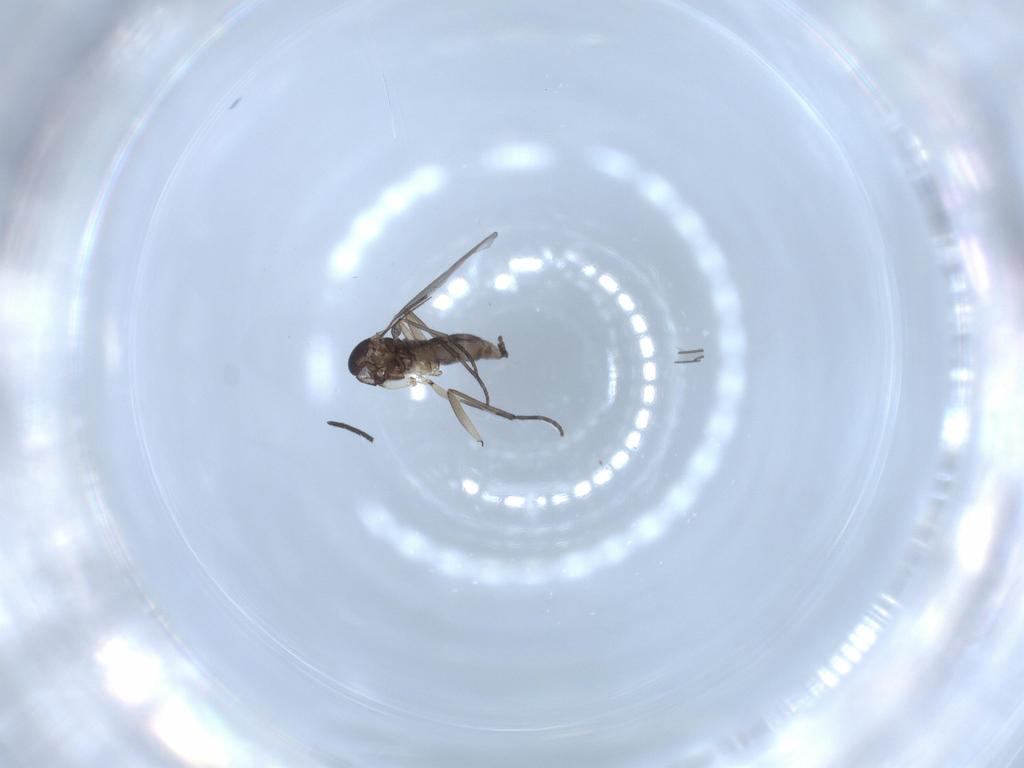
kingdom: Animalia
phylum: Arthropoda
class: Insecta
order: Diptera
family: Sciaridae
